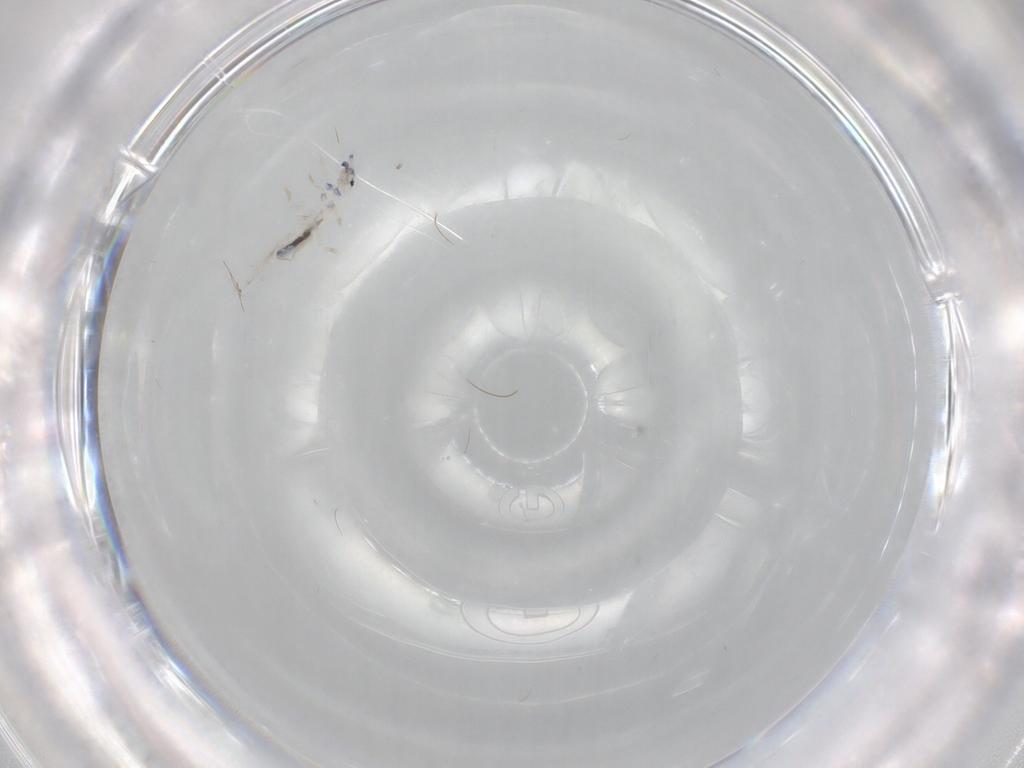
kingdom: Animalia
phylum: Arthropoda
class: Collembola
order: Entomobryomorpha
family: Entomobryidae
